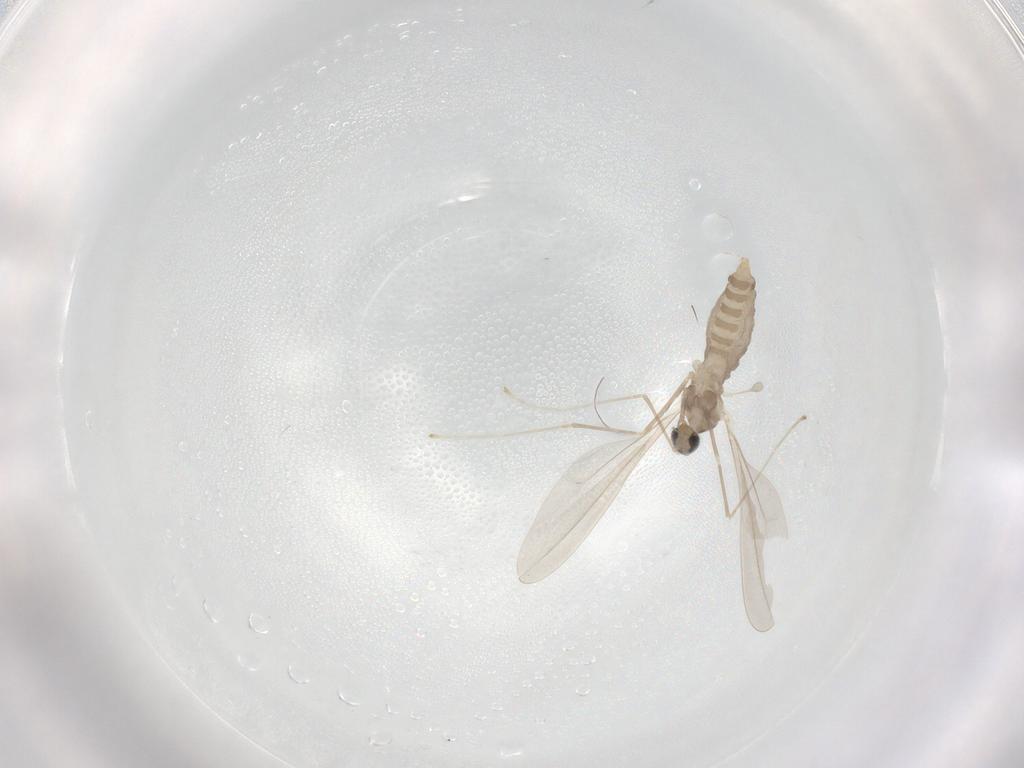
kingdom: Animalia
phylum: Arthropoda
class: Insecta
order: Diptera
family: Cecidomyiidae
